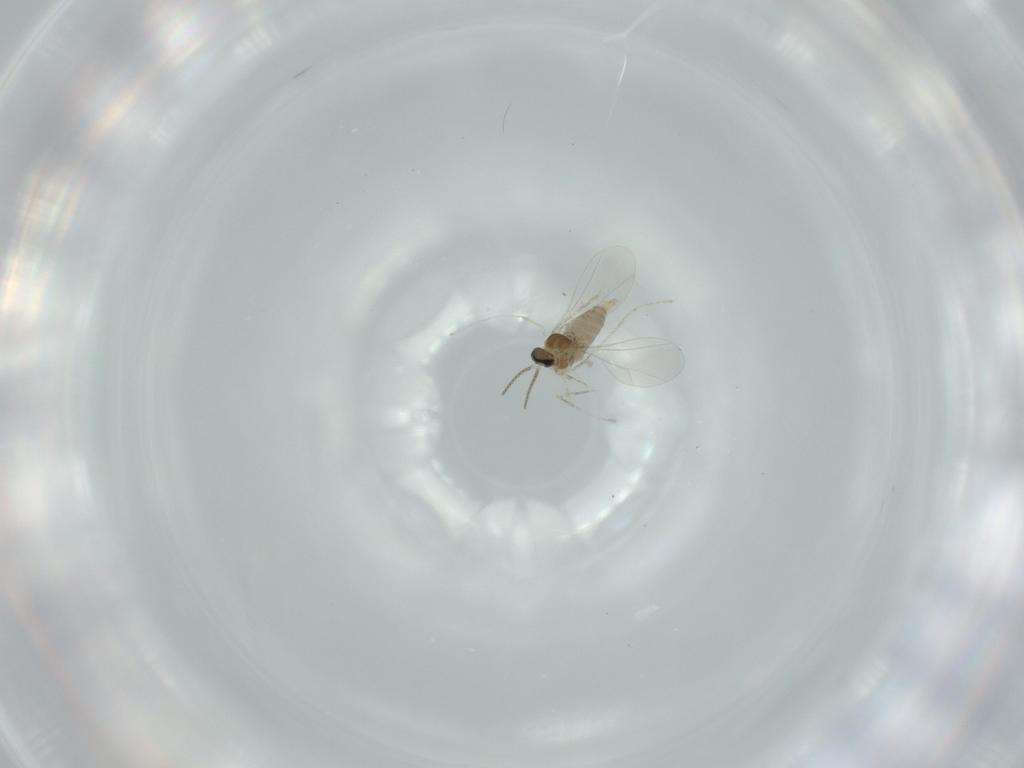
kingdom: Animalia
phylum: Arthropoda
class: Insecta
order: Diptera
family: Cecidomyiidae
